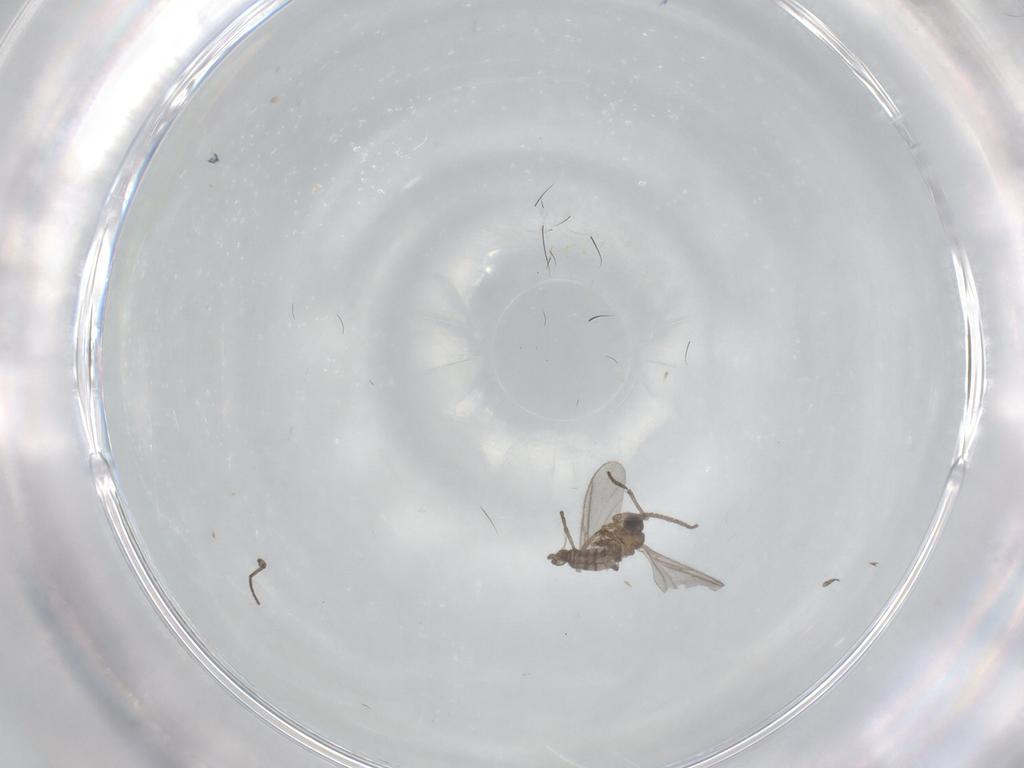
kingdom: Animalia
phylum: Arthropoda
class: Insecta
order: Diptera
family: Sciaridae
